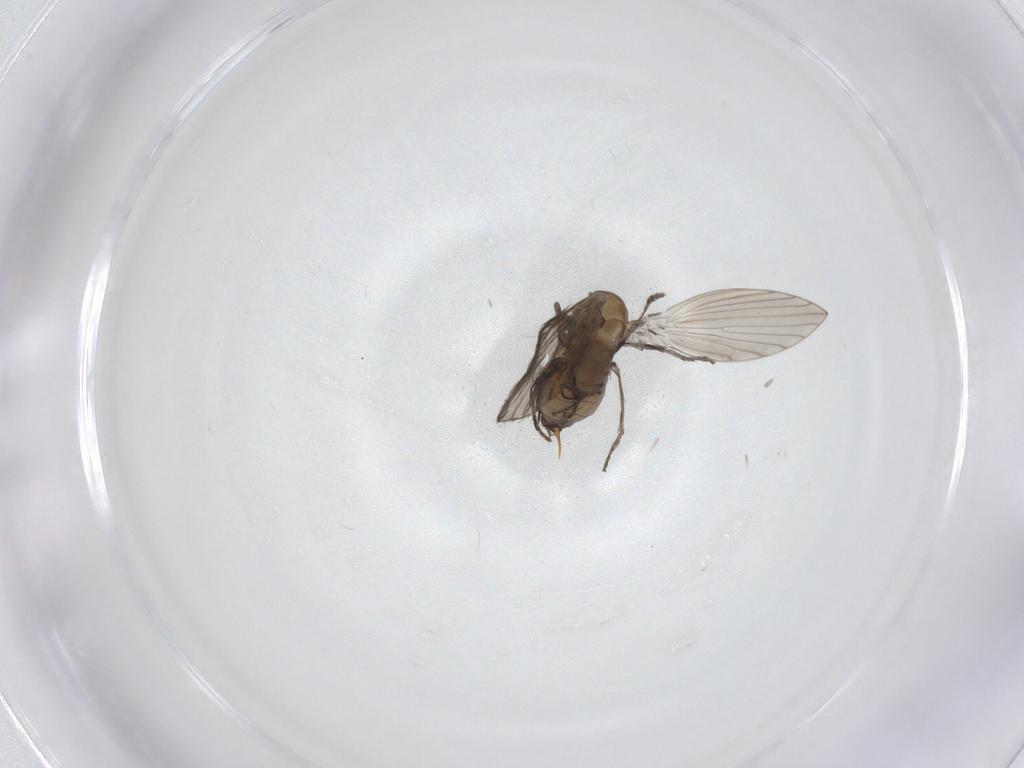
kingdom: Animalia
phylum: Arthropoda
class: Insecta
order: Diptera
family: Psychodidae
